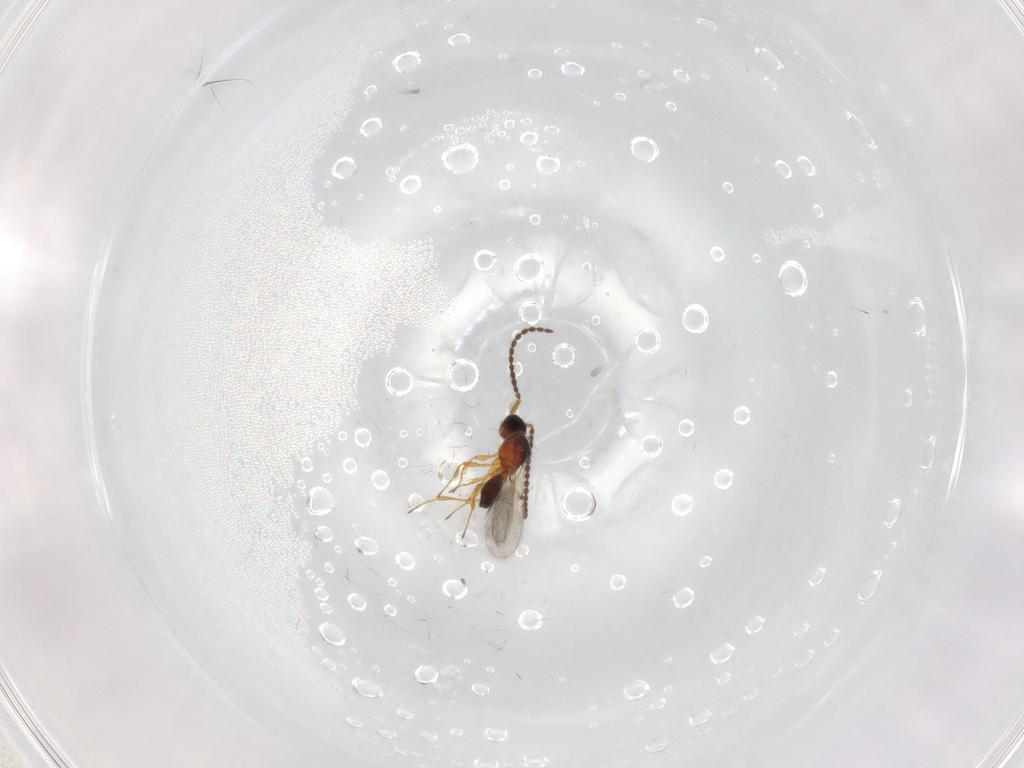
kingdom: Animalia
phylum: Arthropoda
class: Insecta
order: Hymenoptera
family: Diapriidae
